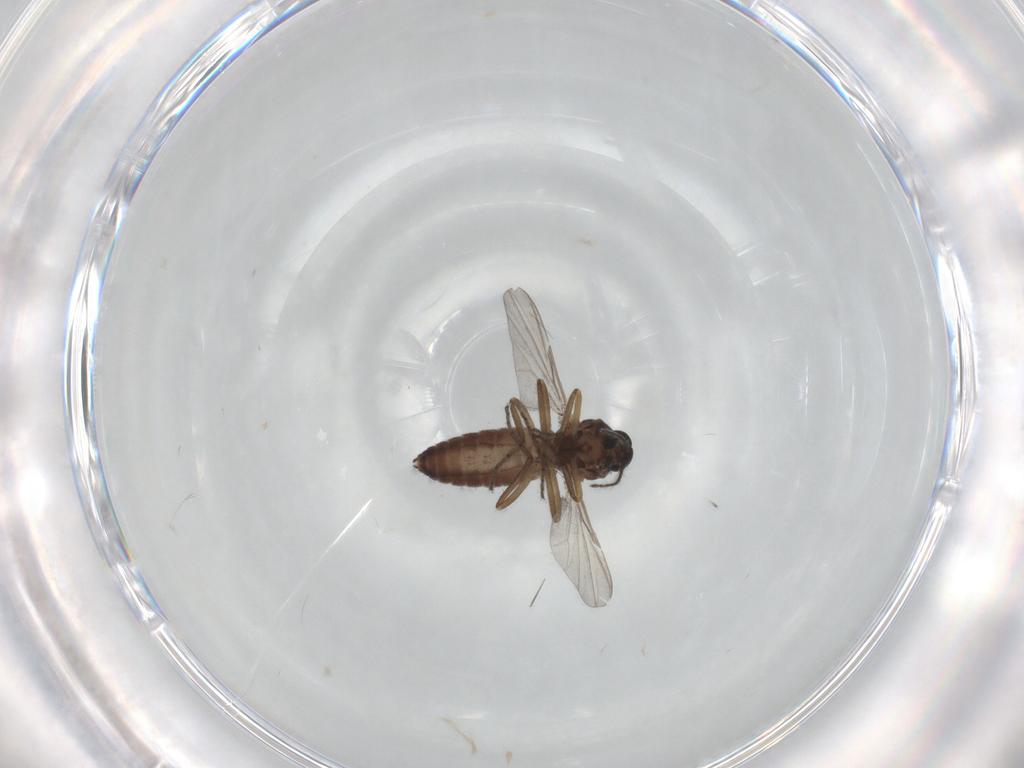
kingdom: Animalia
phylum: Arthropoda
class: Insecta
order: Diptera
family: Ceratopogonidae
